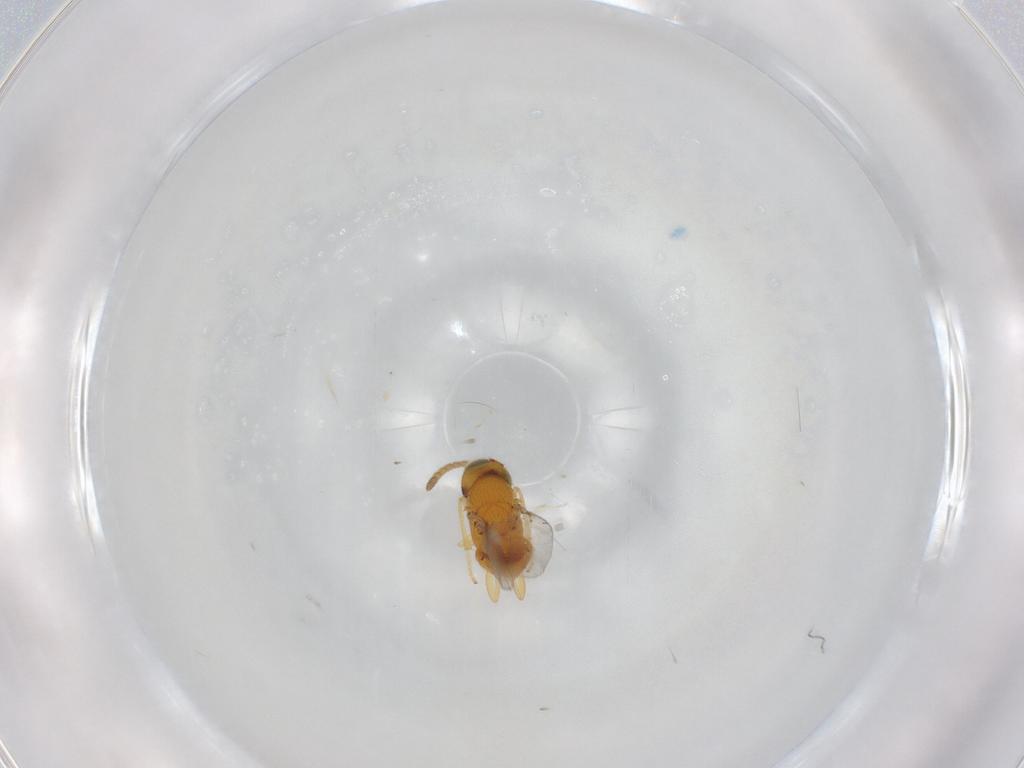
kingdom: Animalia
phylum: Arthropoda
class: Insecta
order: Hymenoptera
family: Encyrtidae
